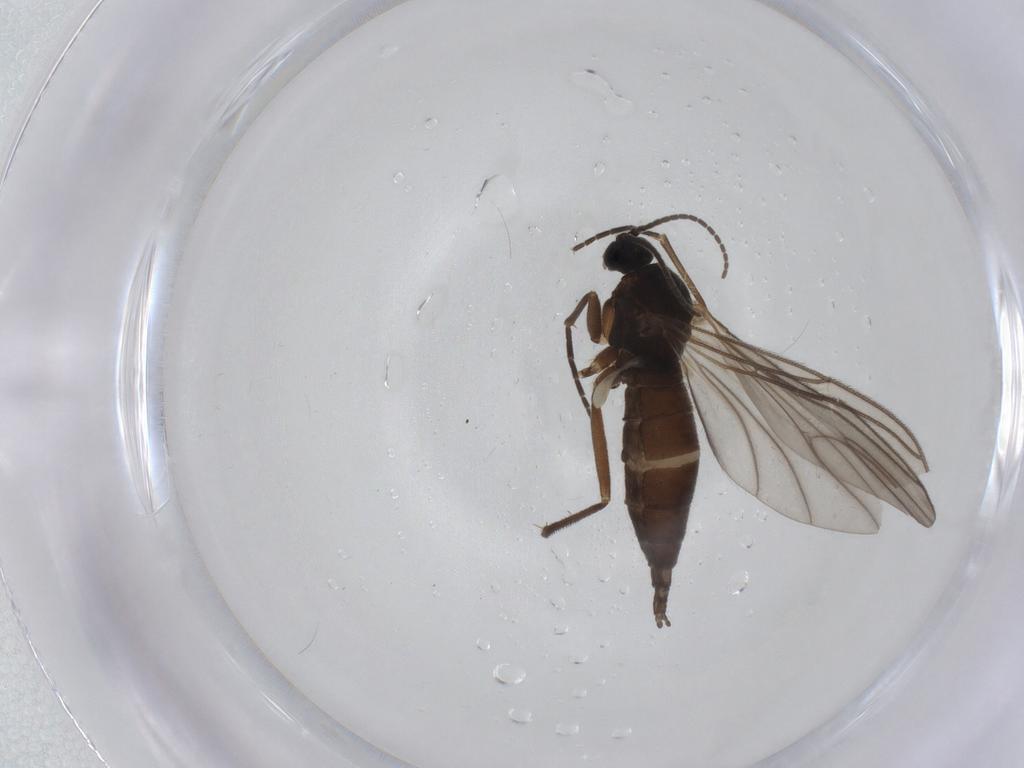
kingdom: Animalia
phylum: Arthropoda
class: Insecta
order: Diptera
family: Sciaridae
